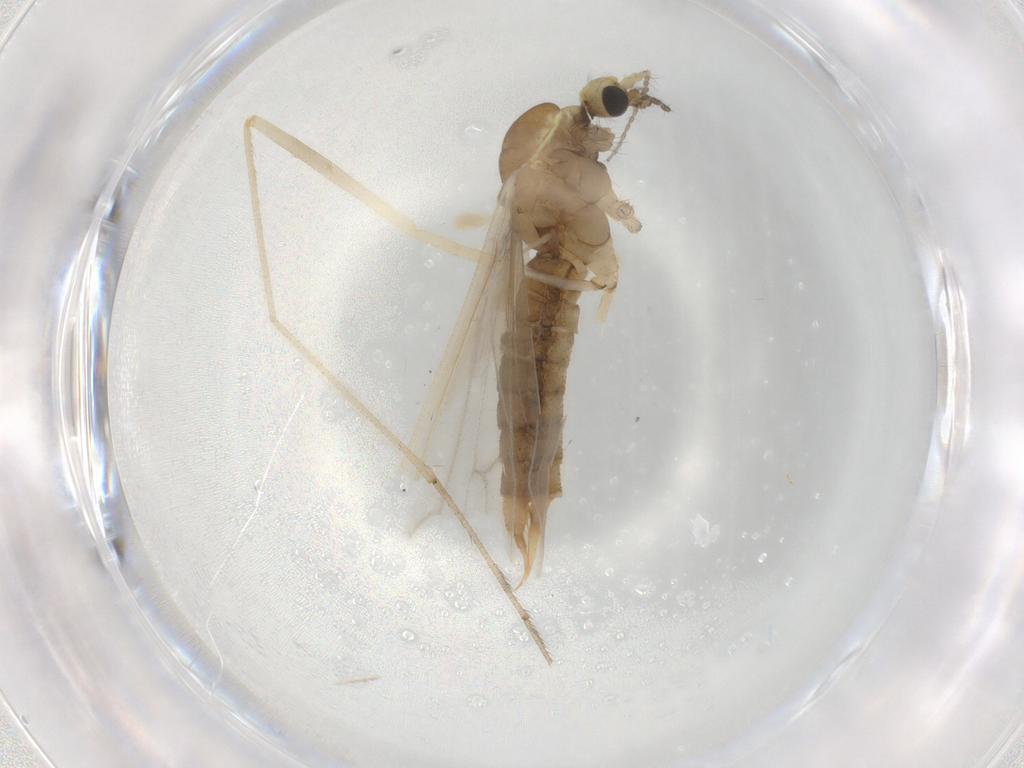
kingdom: Animalia
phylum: Arthropoda
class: Insecta
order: Diptera
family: Limoniidae
